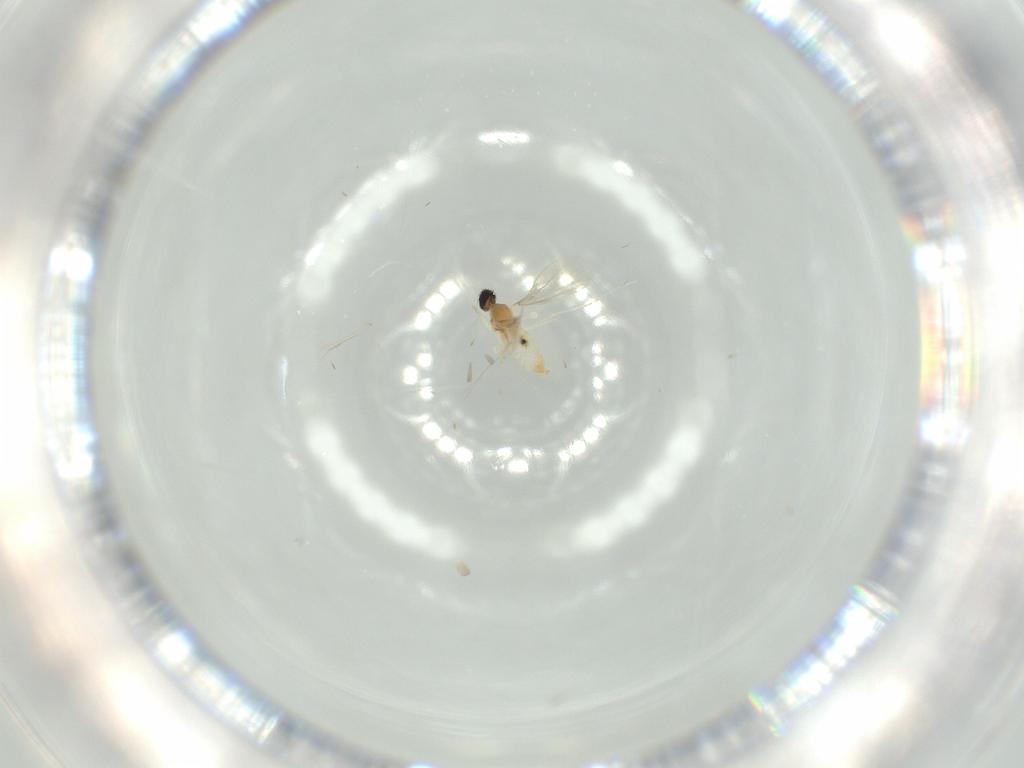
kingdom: Animalia
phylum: Arthropoda
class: Insecta
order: Diptera
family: Cecidomyiidae
